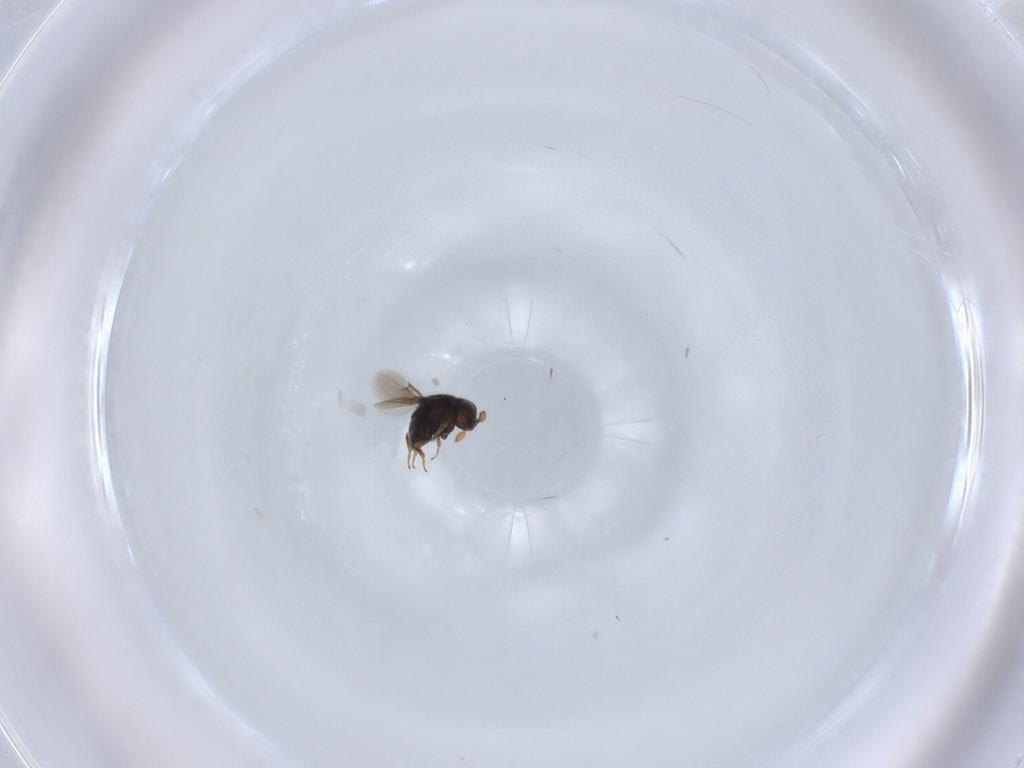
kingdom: Animalia
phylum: Arthropoda
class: Insecta
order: Hymenoptera
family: Scelionidae
